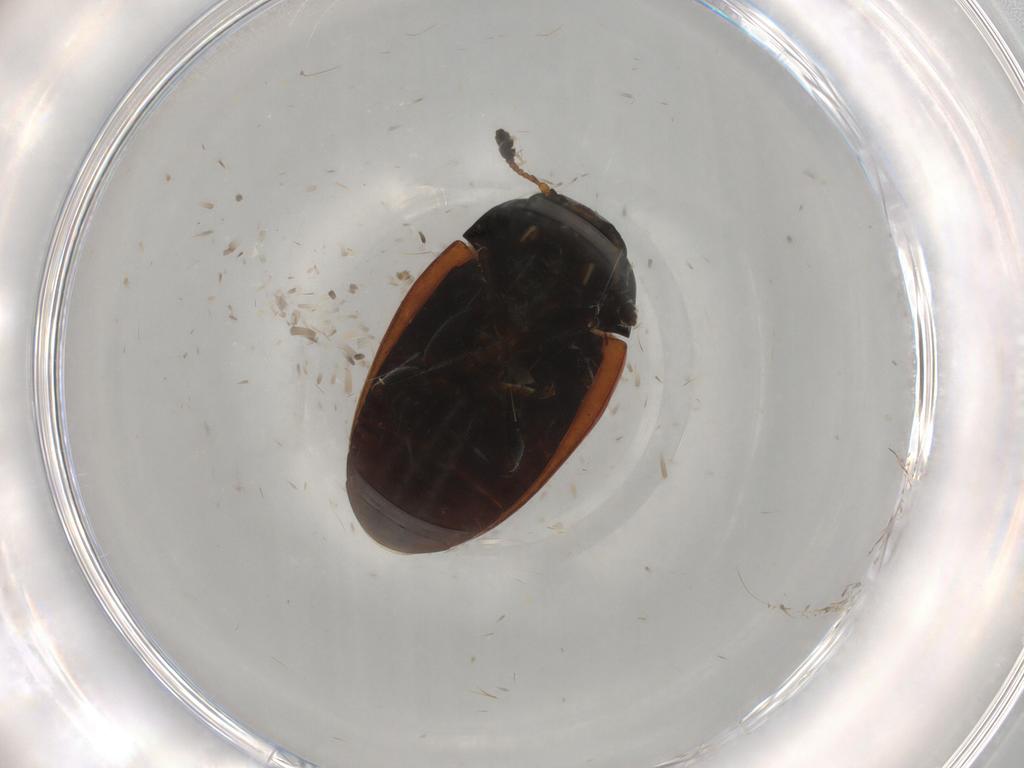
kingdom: Animalia
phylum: Arthropoda
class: Insecta
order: Coleoptera
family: Erotylidae
